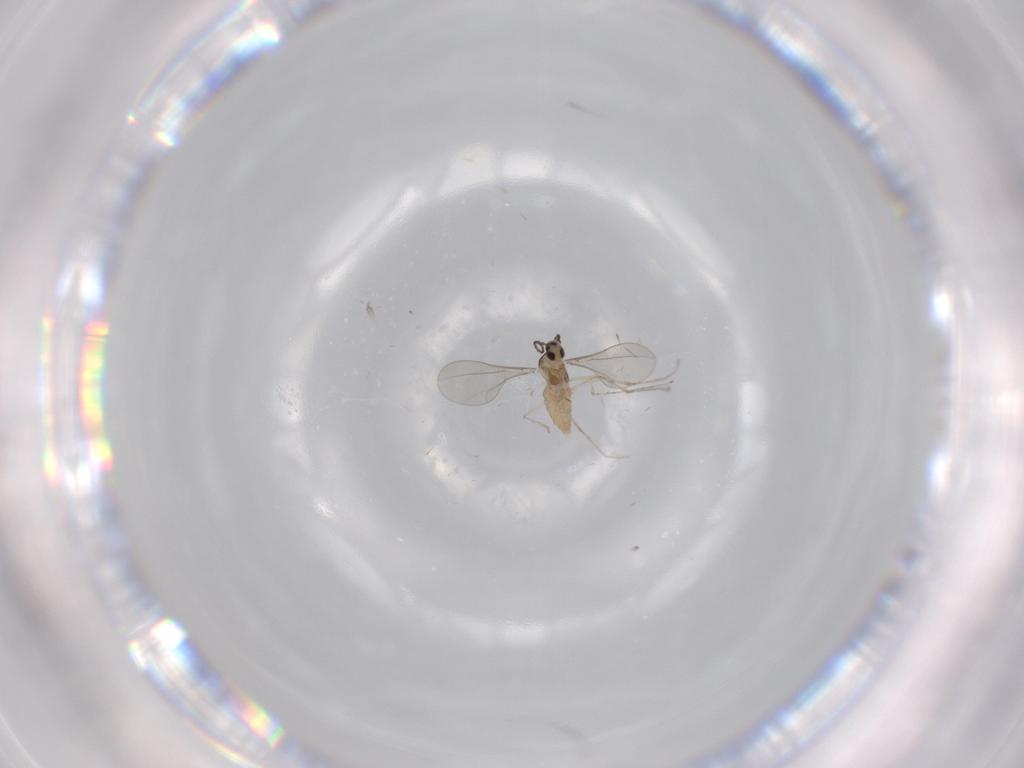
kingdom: Animalia
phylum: Arthropoda
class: Insecta
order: Diptera
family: Cecidomyiidae
